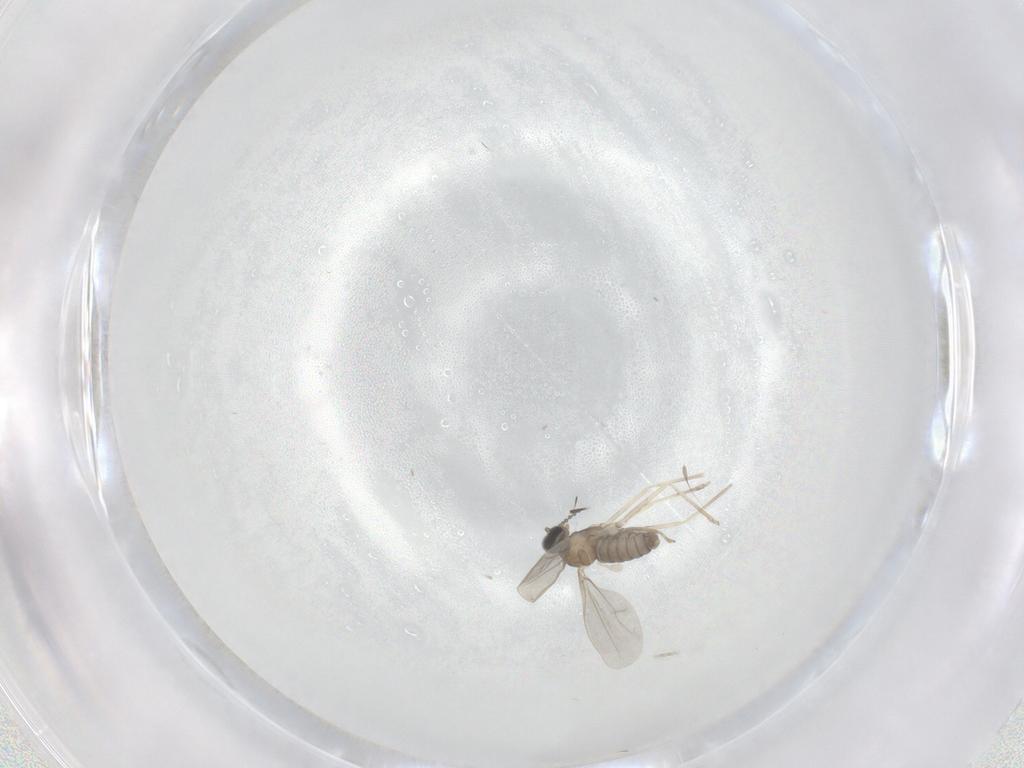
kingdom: Animalia
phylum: Arthropoda
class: Insecta
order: Diptera
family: Cecidomyiidae
